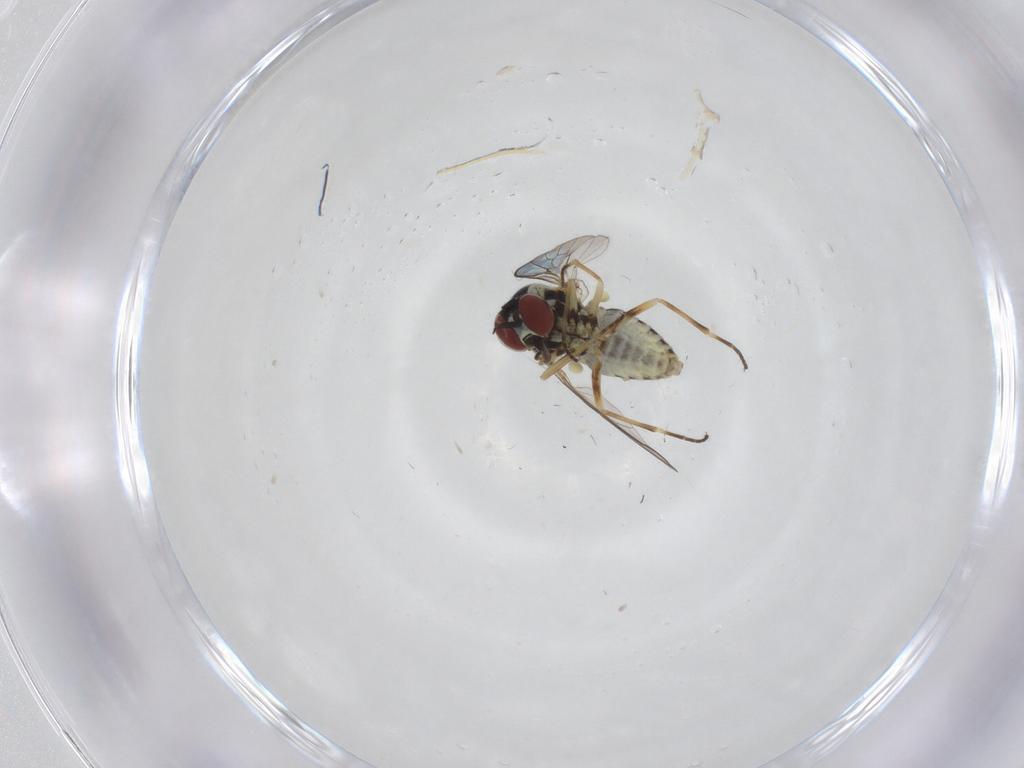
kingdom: Animalia
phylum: Arthropoda
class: Insecta
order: Diptera
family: Bombyliidae
